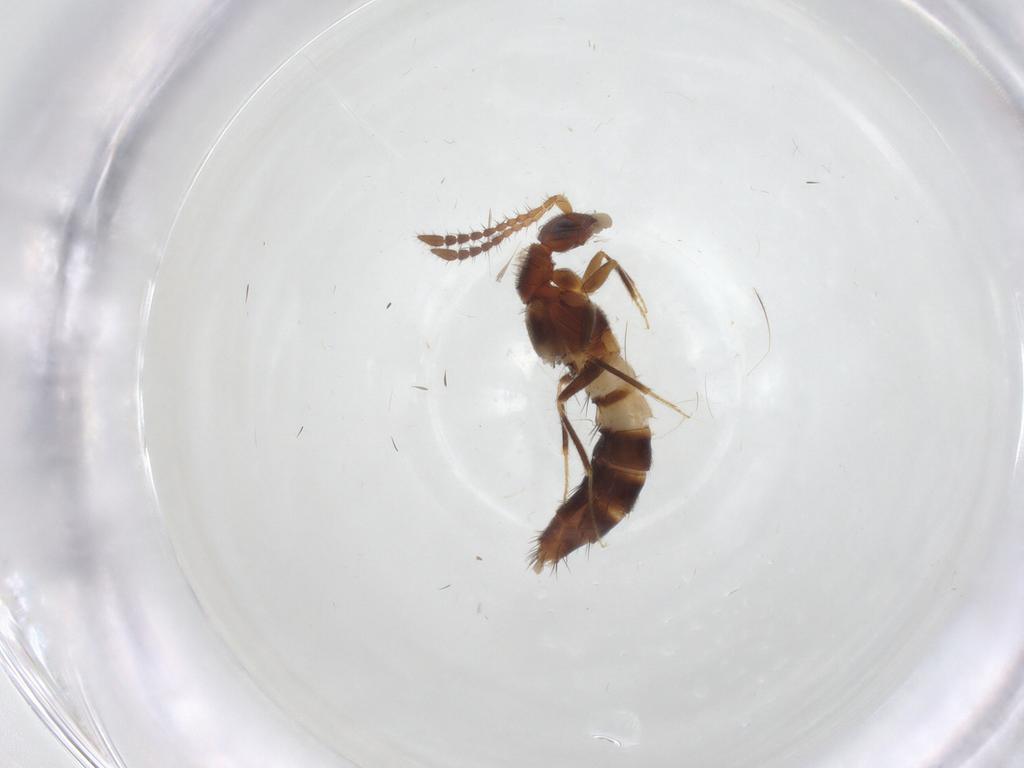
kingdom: Animalia
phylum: Arthropoda
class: Insecta
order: Coleoptera
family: Staphylinidae
